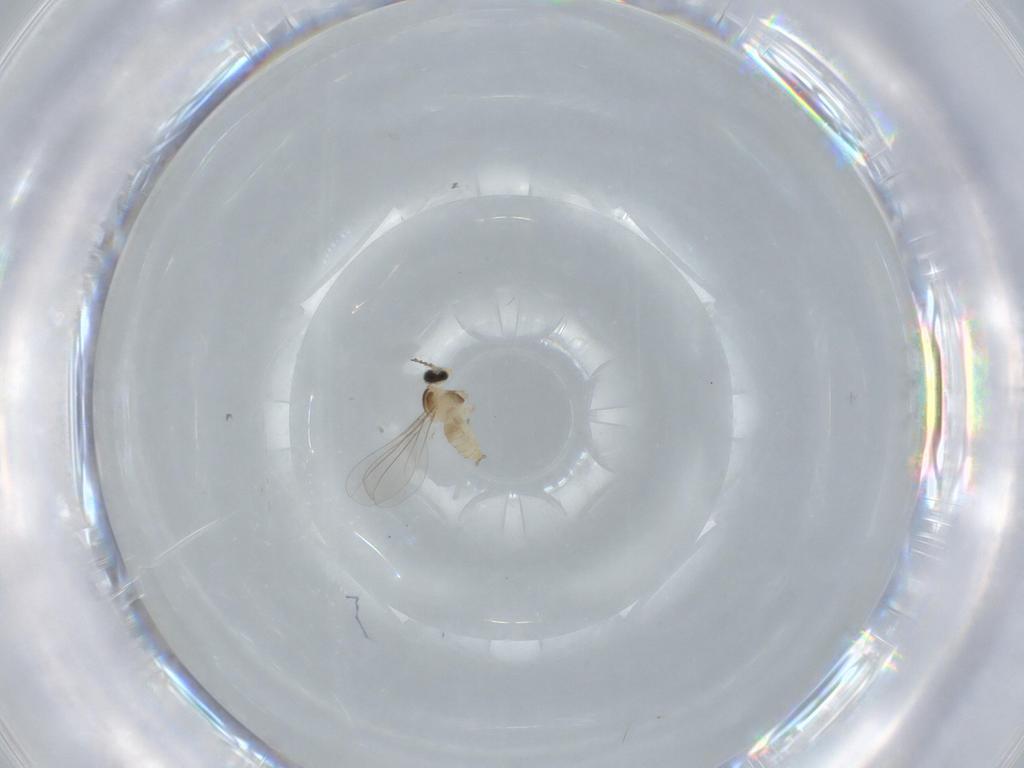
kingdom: Animalia
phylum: Arthropoda
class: Insecta
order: Diptera
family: Cecidomyiidae
